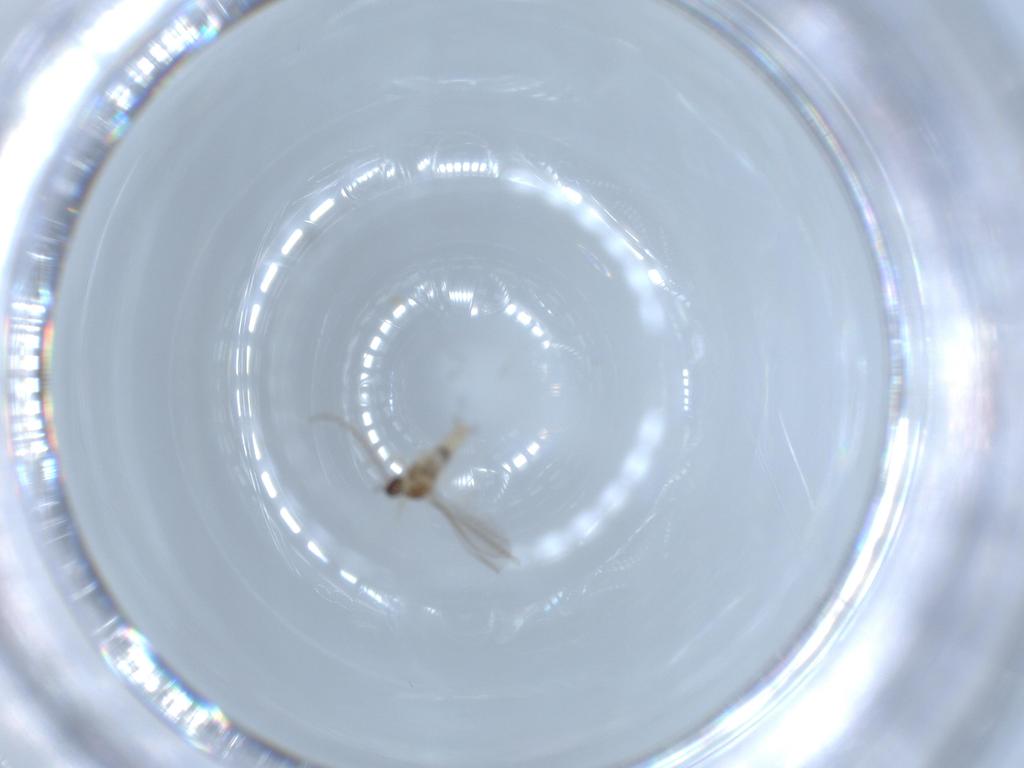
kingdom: Animalia
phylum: Arthropoda
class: Insecta
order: Diptera
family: Cecidomyiidae
